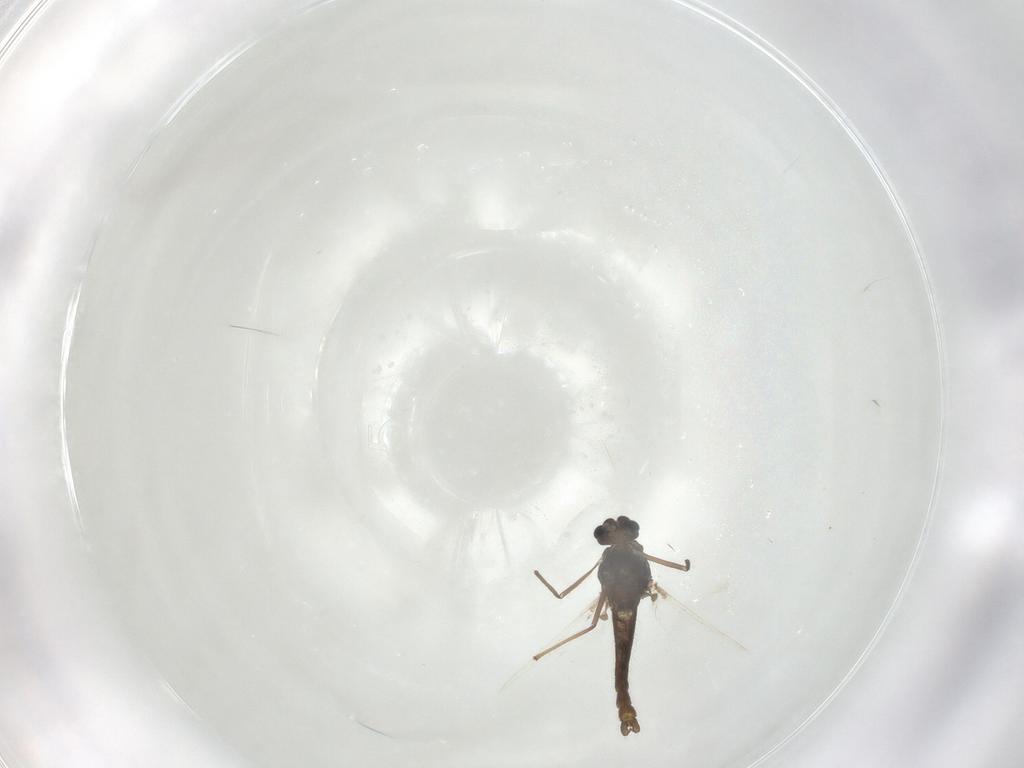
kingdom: Animalia
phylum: Arthropoda
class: Insecta
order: Diptera
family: Chironomidae
